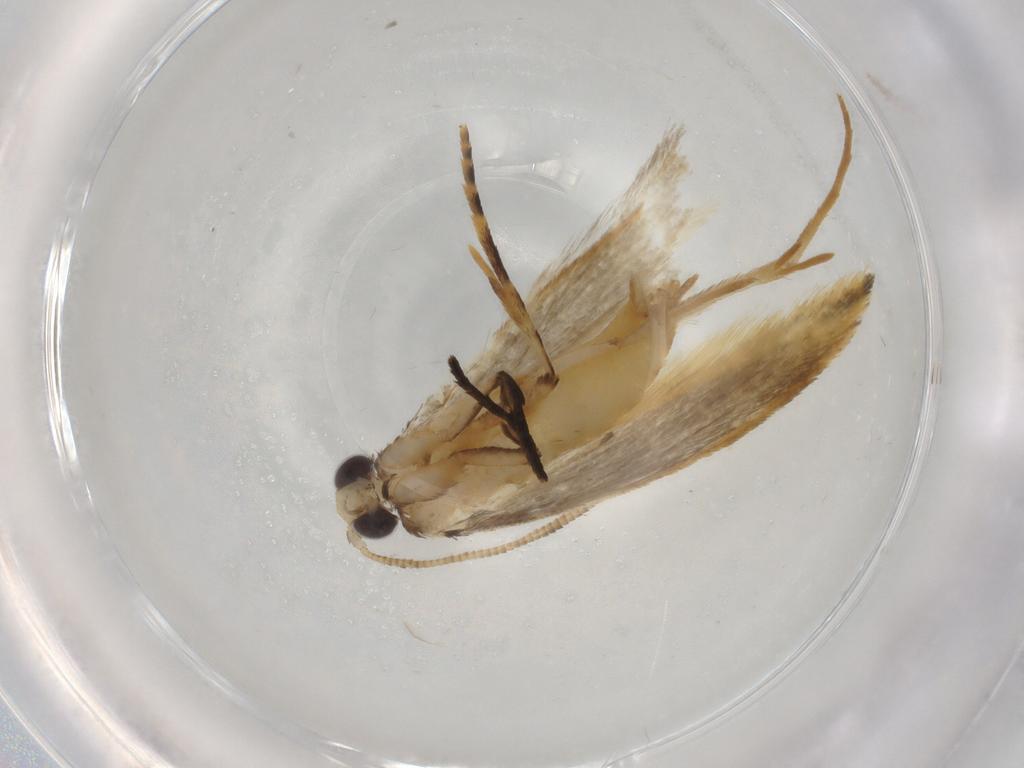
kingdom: Animalia
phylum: Arthropoda
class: Insecta
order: Lepidoptera
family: Tineidae
